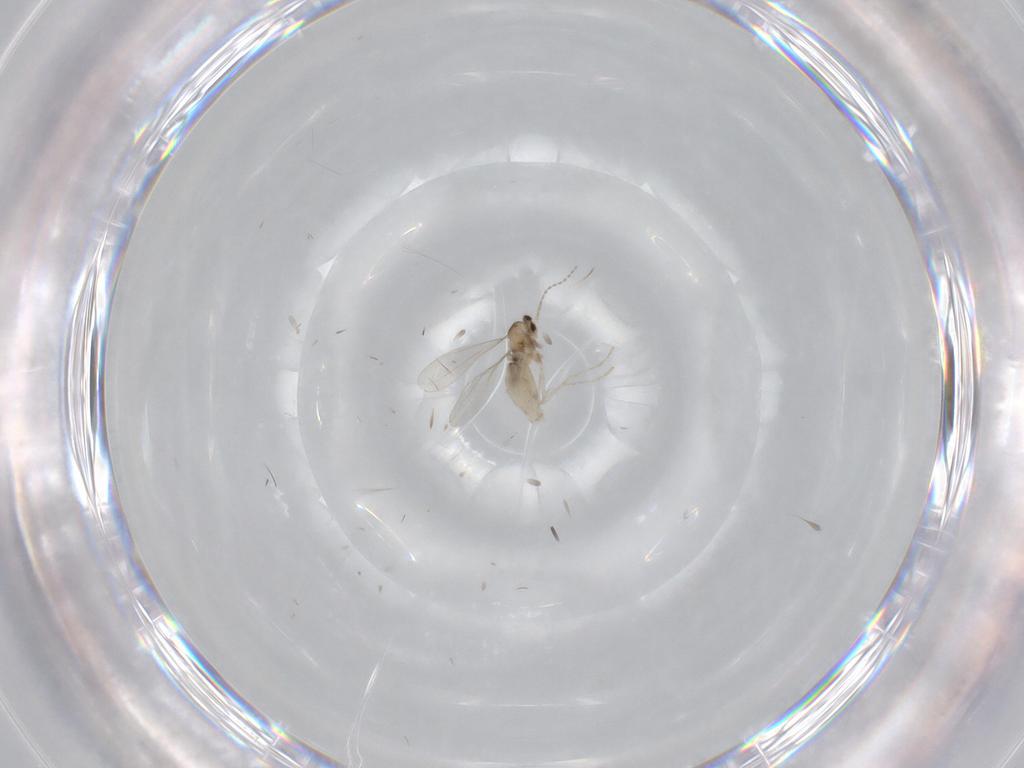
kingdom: Animalia
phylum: Arthropoda
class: Insecta
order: Diptera
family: Cecidomyiidae
